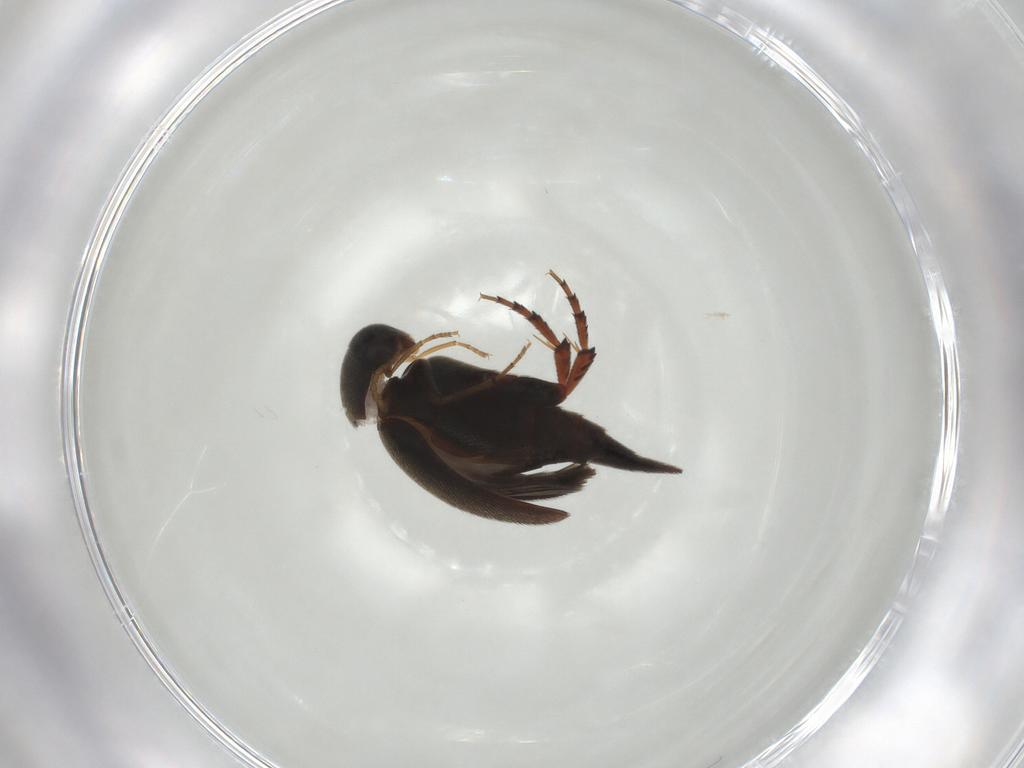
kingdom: Animalia
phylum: Arthropoda
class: Insecta
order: Coleoptera
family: Mordellidae
